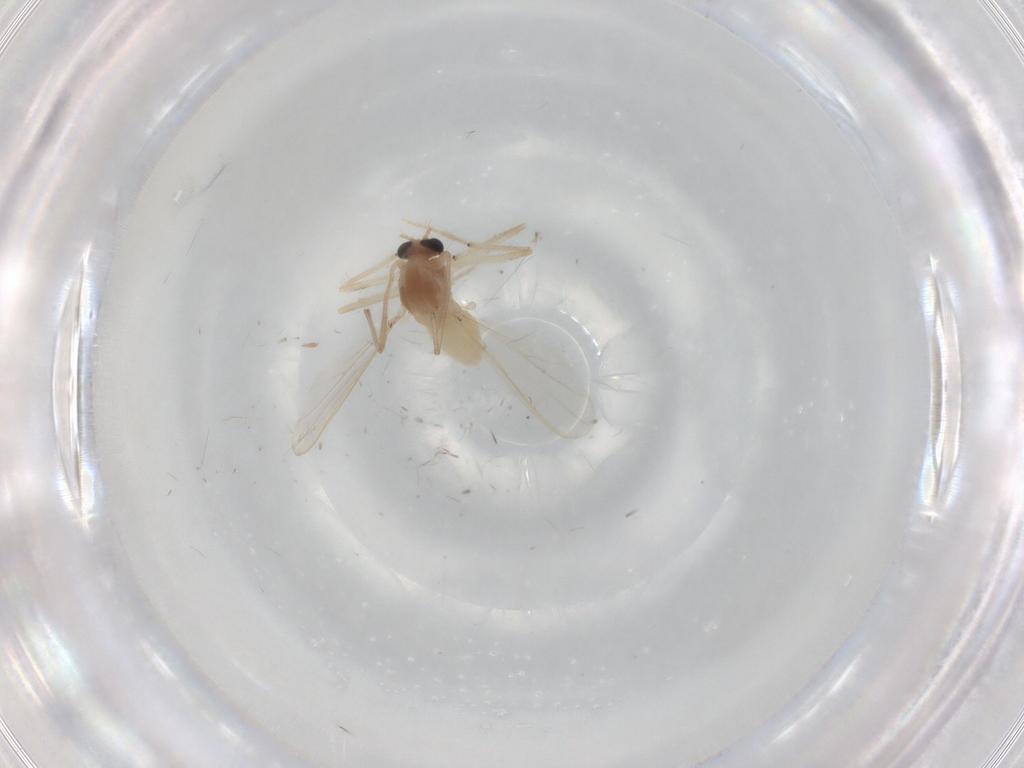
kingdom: Animalia
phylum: Arthropoda
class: Insecta
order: Diptera
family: Chironomidae
